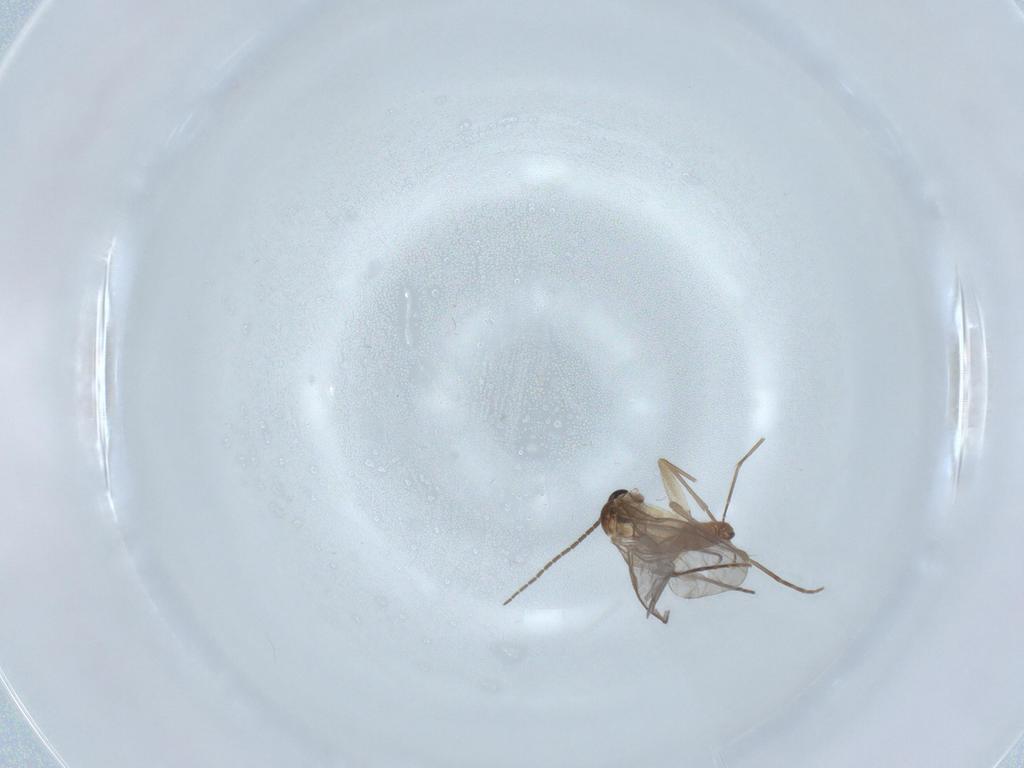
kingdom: Animalia
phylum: Arthropoda
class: Insecta
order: Diptera
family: Sciaridae
